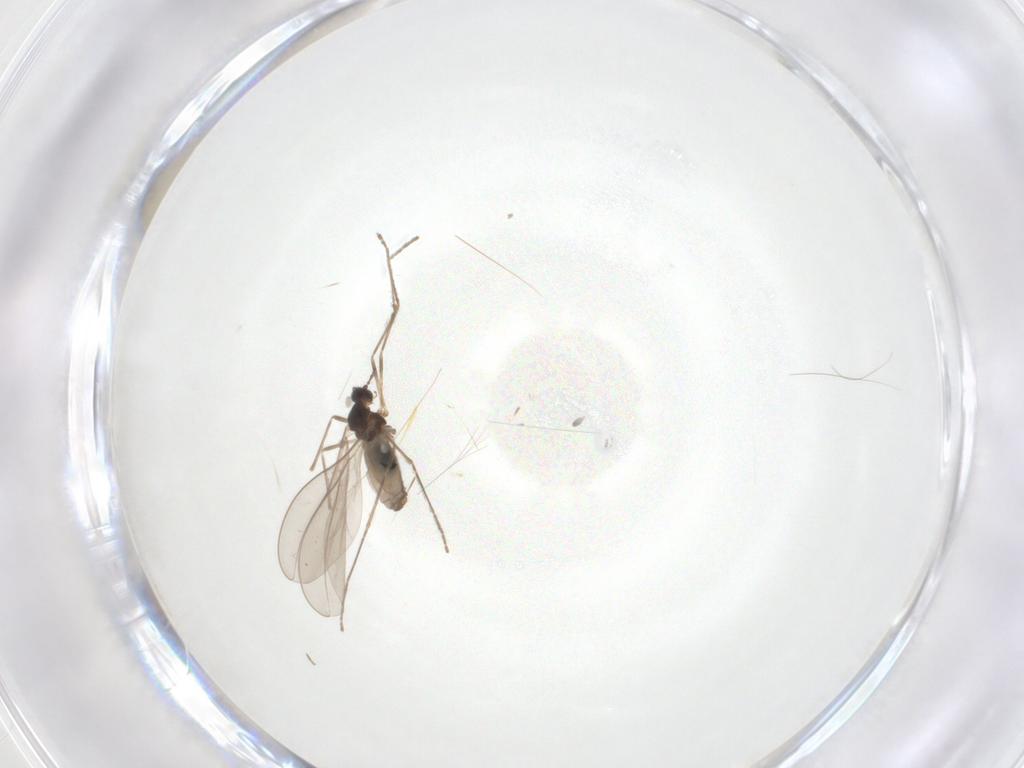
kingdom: Animalia
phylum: Arthropoda
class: Insecta
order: Diptera
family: Cecidomyiidae
